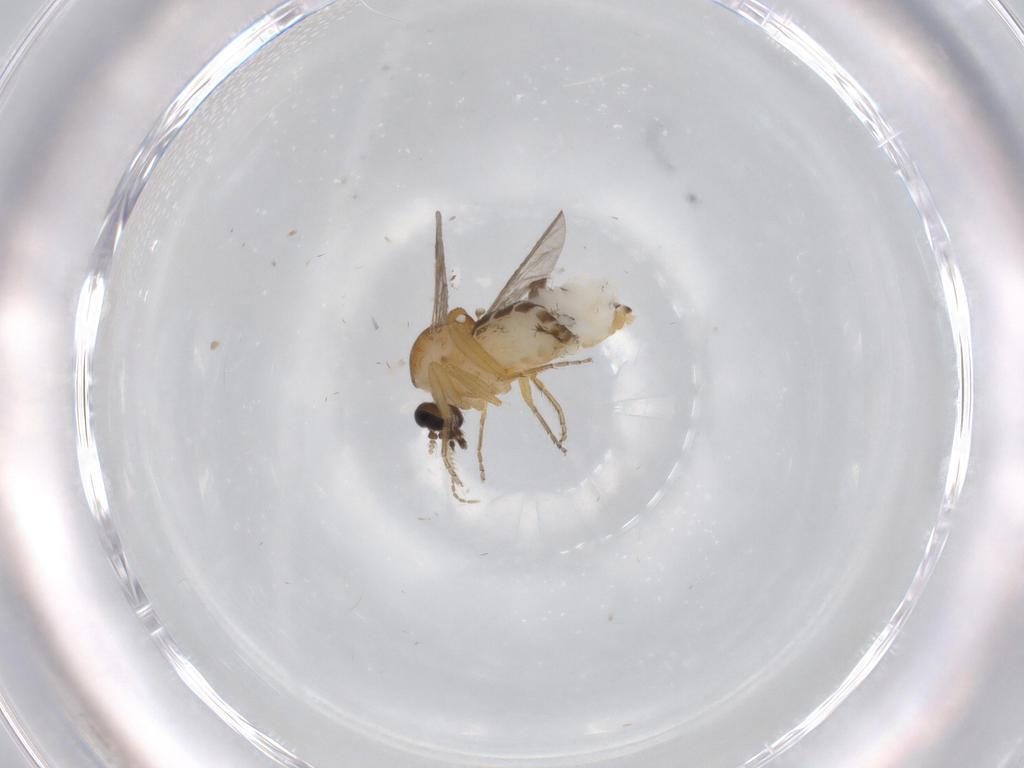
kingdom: Animalia
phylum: Arthropoda
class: Insecta
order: Diptera
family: Ceratopogonidae
